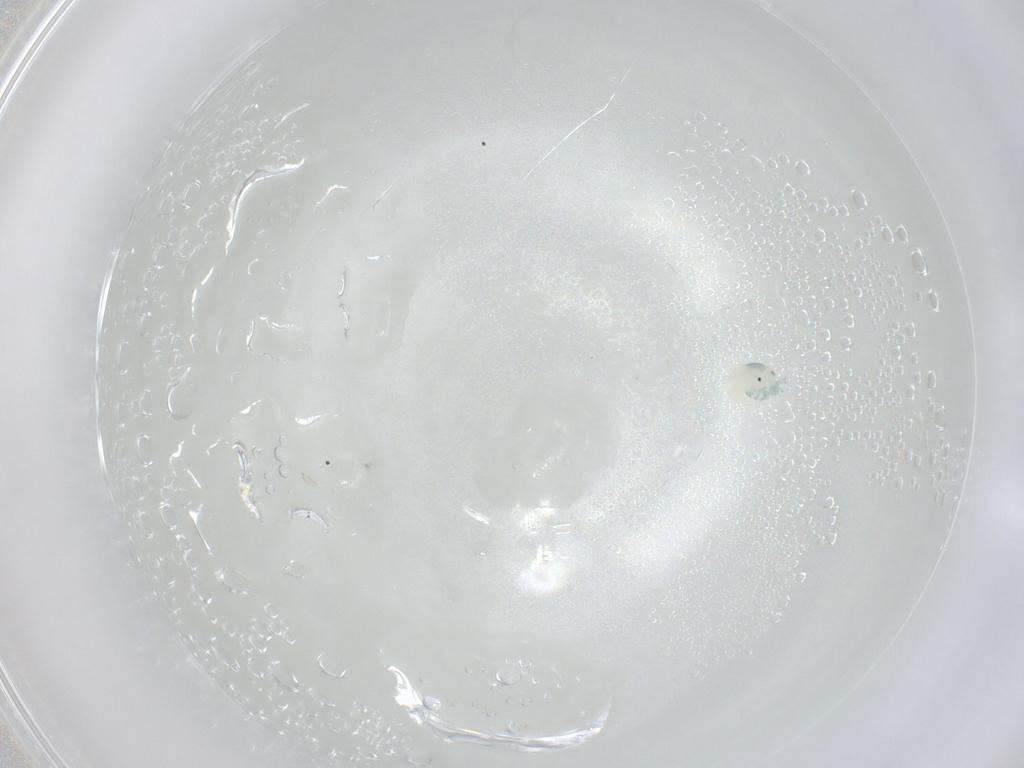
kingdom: Animalia
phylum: Arthropoda
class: Arachnida
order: Trombidiformes
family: Arrenuridae
